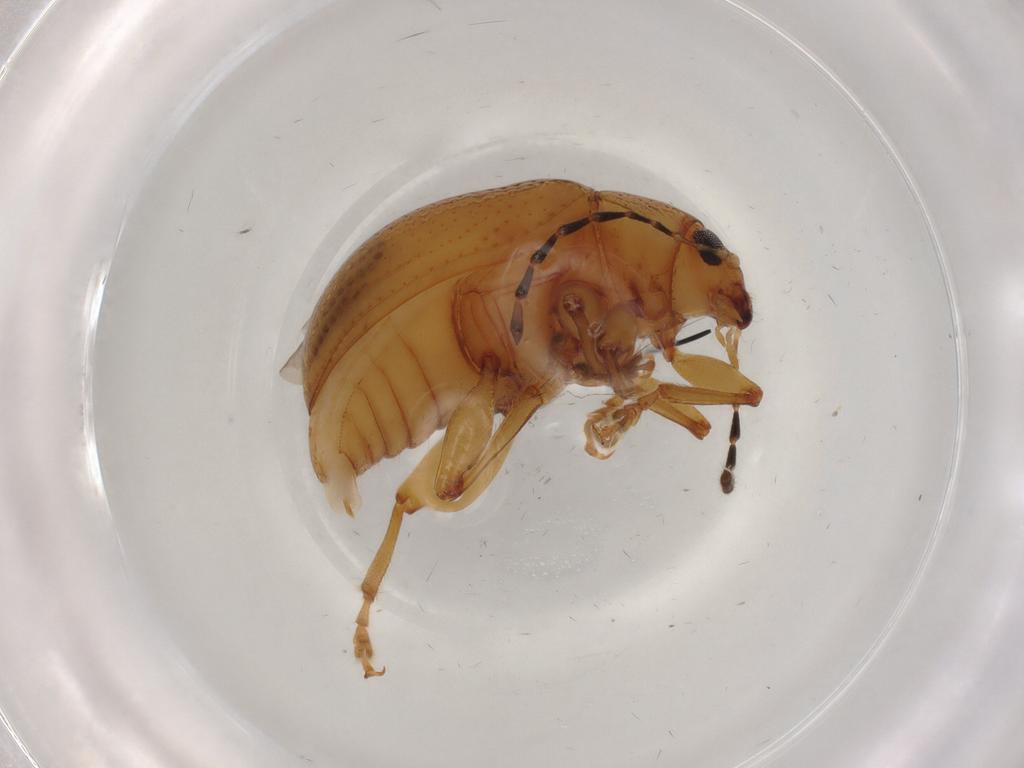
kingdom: Animalia
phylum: Arthropoda
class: Insecta
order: Coleoptera
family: Chrysomelidae
